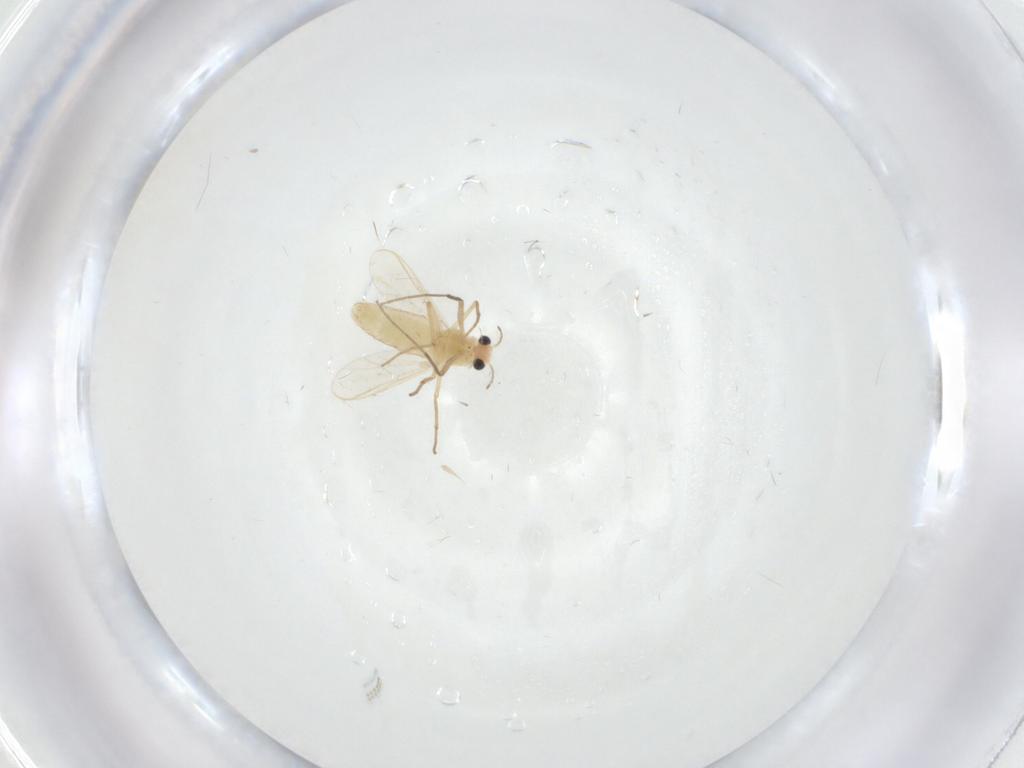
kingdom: Animalia
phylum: Arthropoda
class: Insecta
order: Diptera
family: Chironomidae
